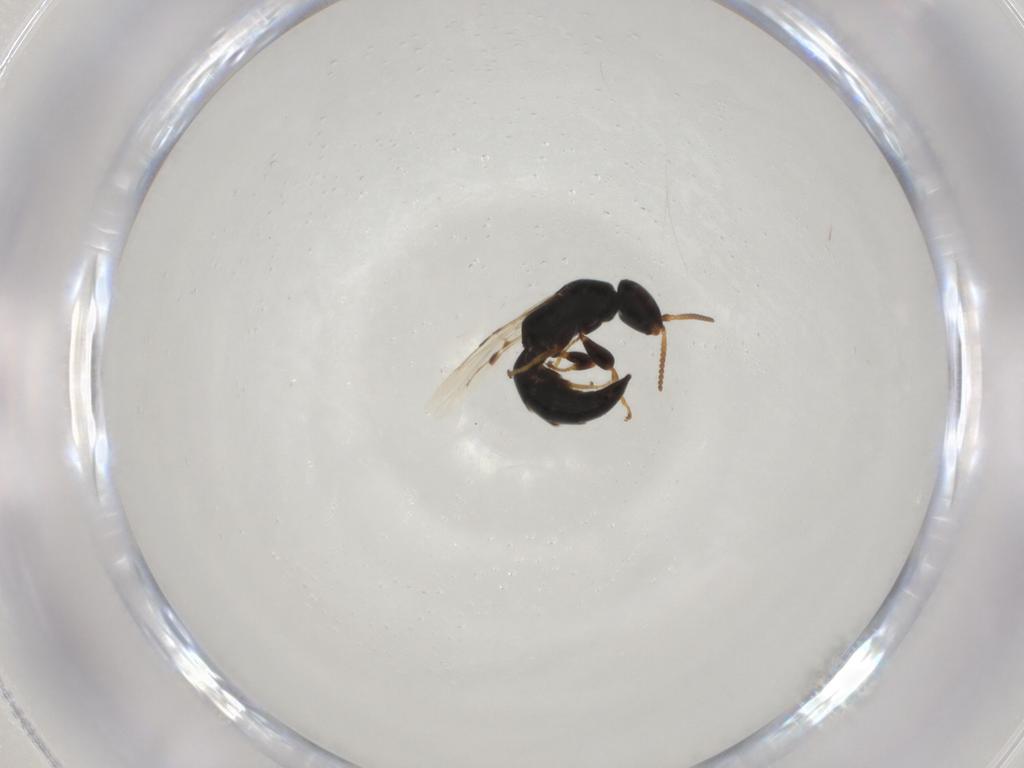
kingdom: Animalia
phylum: Arthropoda
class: Insecta
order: Hymenoptera
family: Bethylidae
